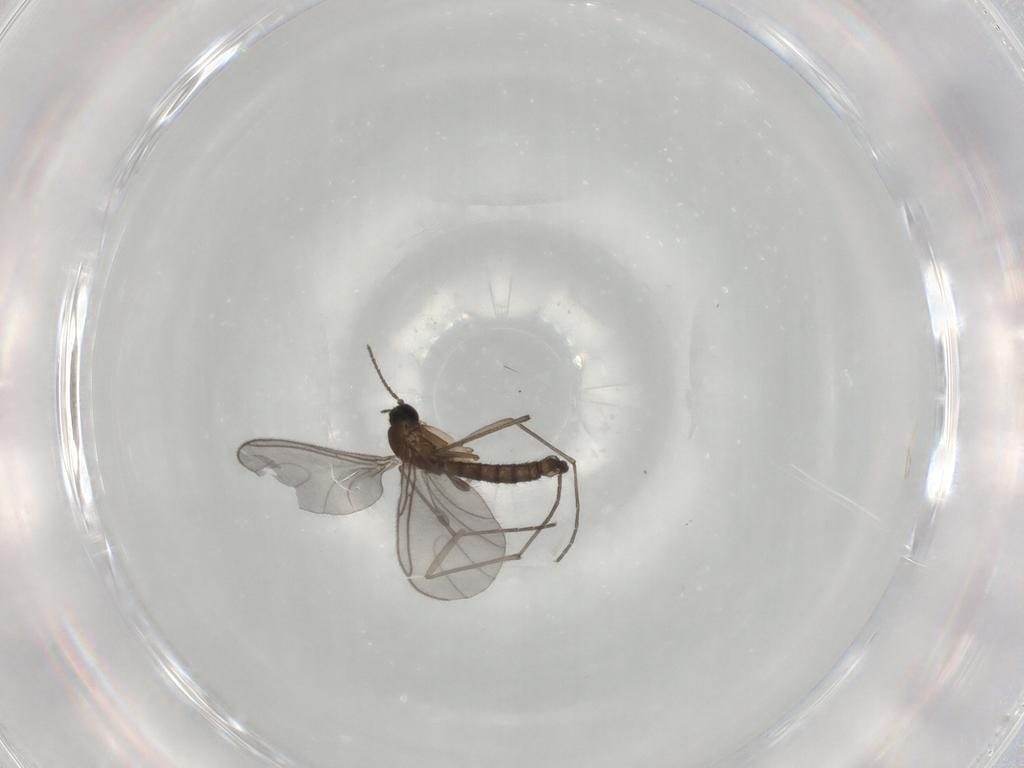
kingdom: Animalia
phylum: Arthropoda
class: Insecta
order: Diptera
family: Sciaridae
